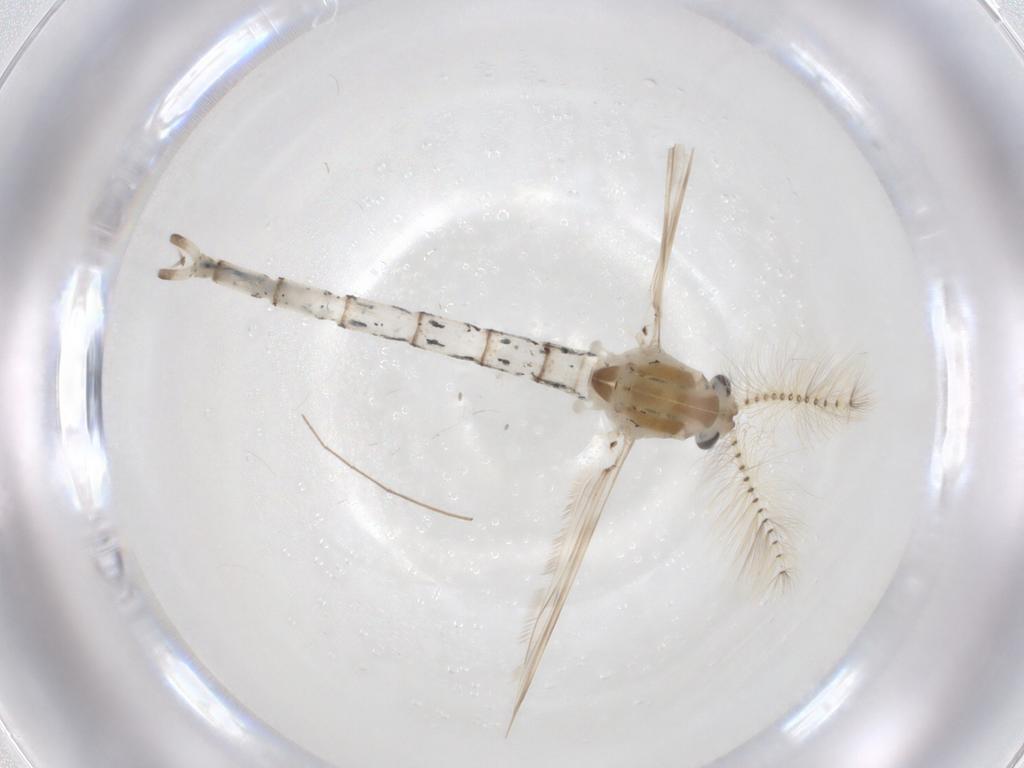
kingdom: Animalia
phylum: Arthropoda
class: Insecta
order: Diptera
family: Chaoboridae
